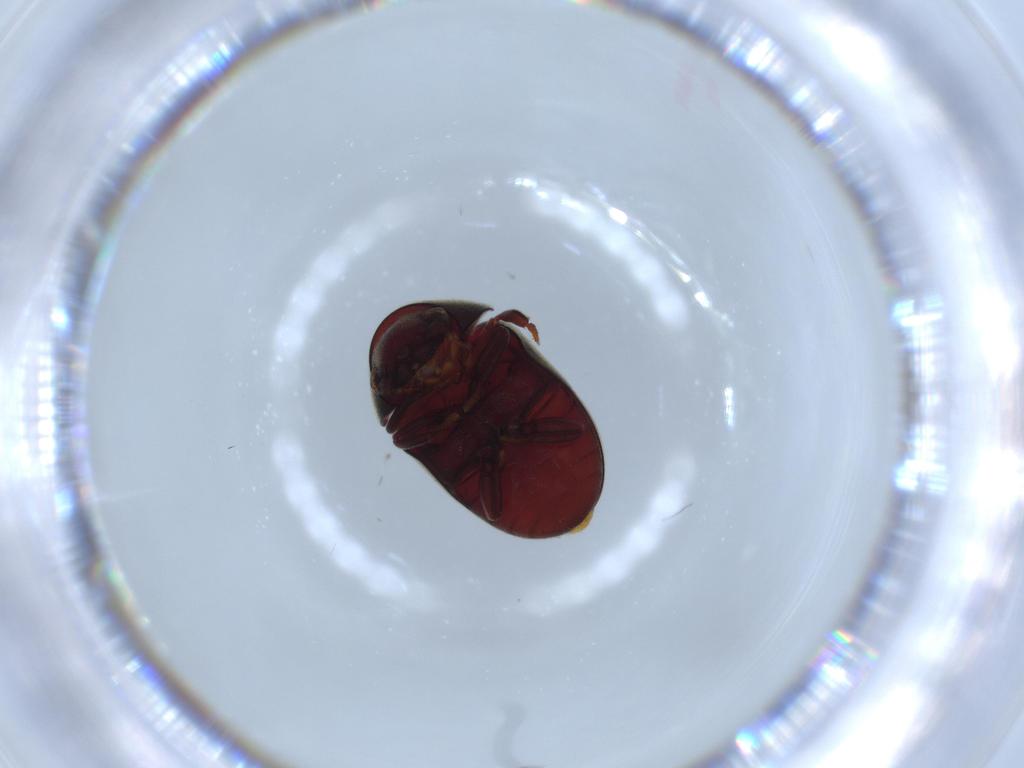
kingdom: Animalia
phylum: Arthropoda
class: Insecta
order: Coleoptera
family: Ptinidae
